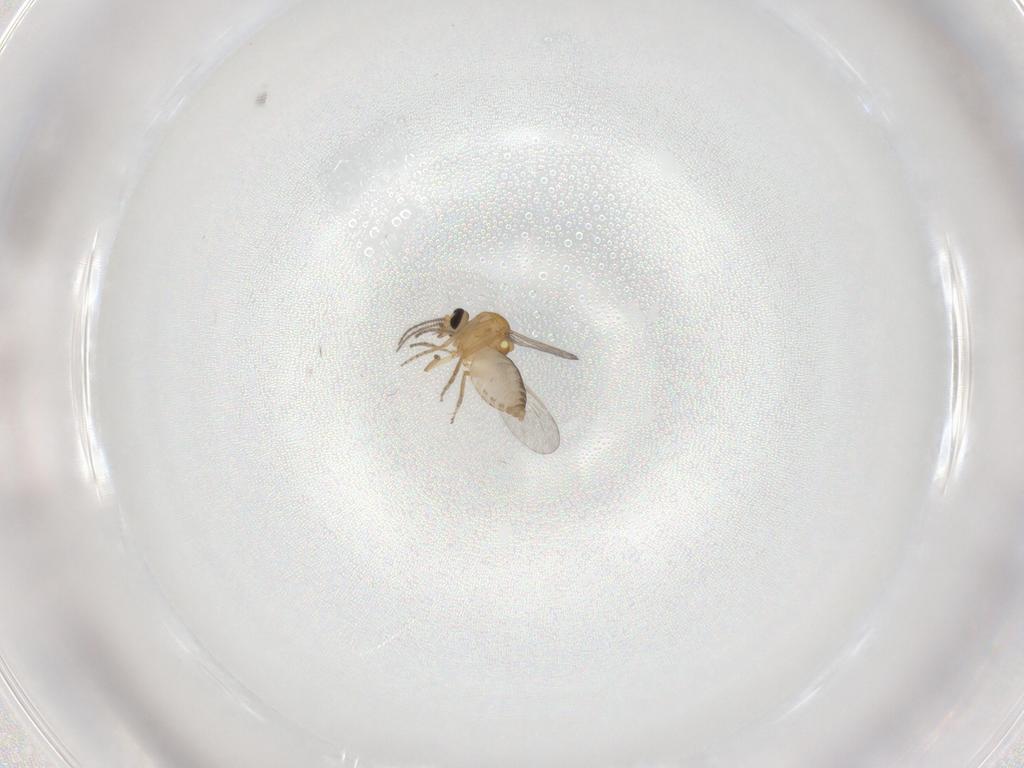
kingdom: Animalia
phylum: Arthropoda
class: Insecta
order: Diptera
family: Ceratopogonidae
